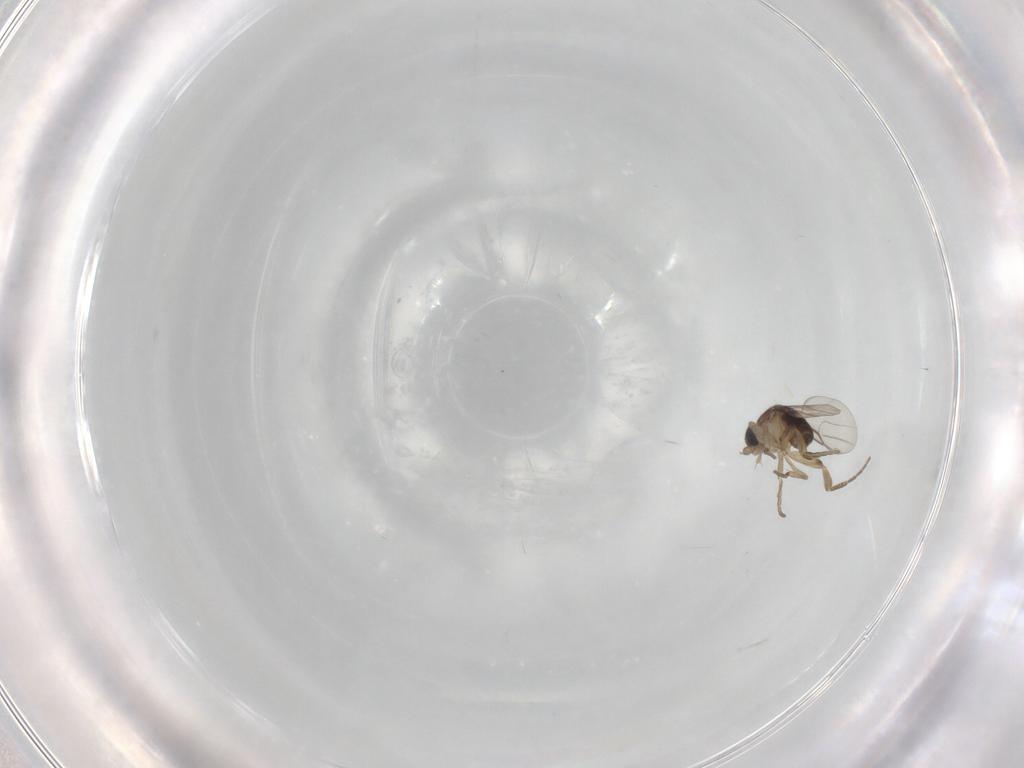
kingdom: Animalia
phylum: Arthropoda
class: Insecta
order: Diptera
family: Phoridae
